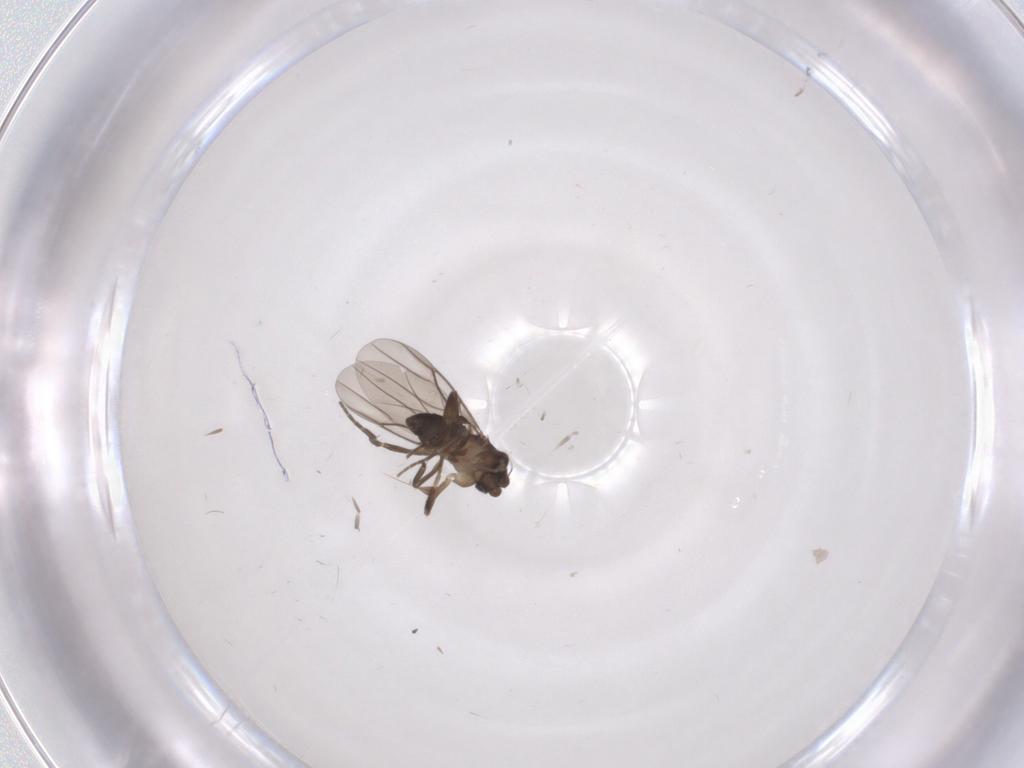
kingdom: Animalia
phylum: Arthropoda
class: Insecta
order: Diptera
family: Phoridae
